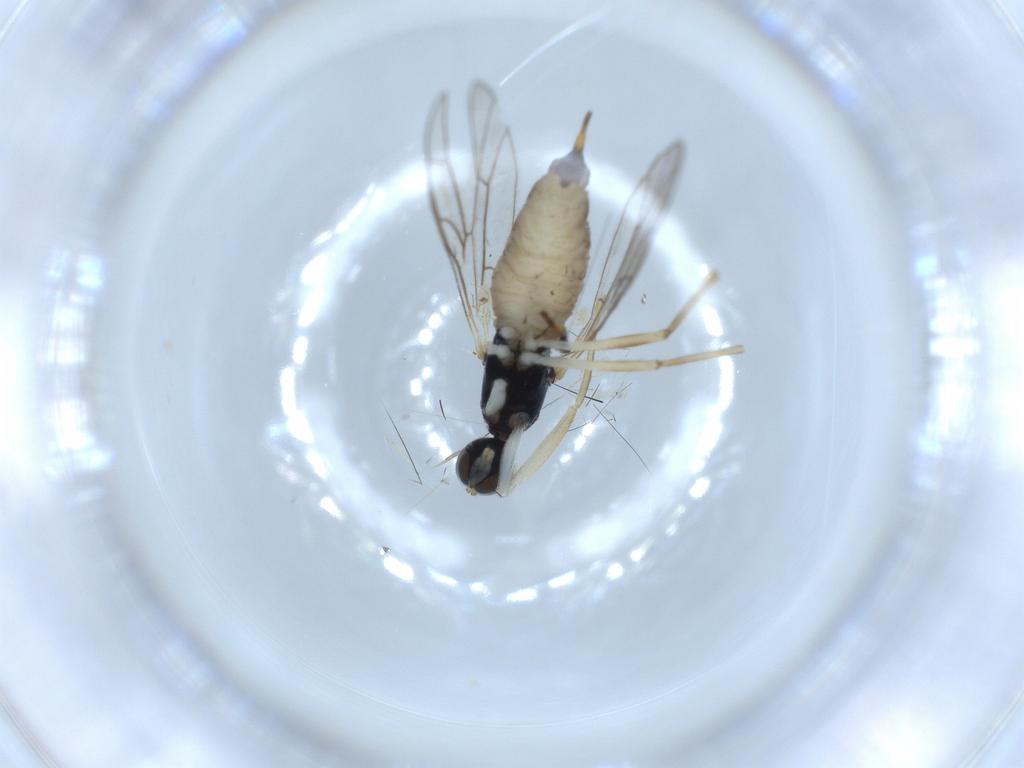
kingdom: Animalia
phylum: Arthropoda
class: Insecta
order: Diptera
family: Empididae
